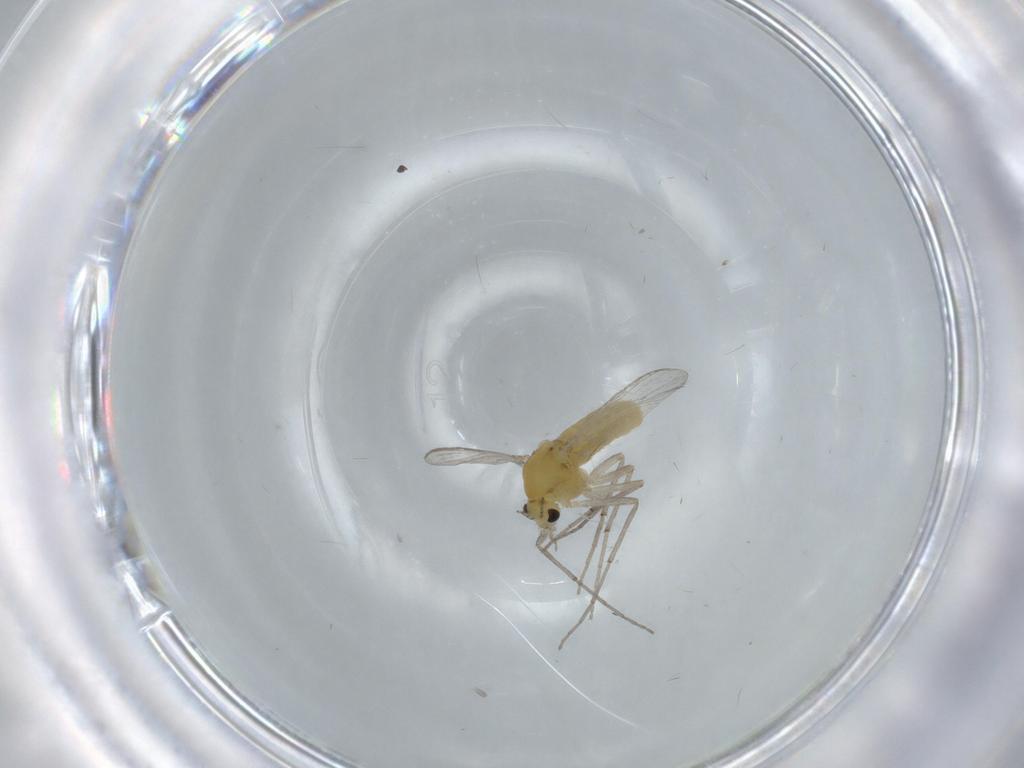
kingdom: Animalia
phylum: Arthropoda
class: Insecta
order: Diptera
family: Chironomidae
